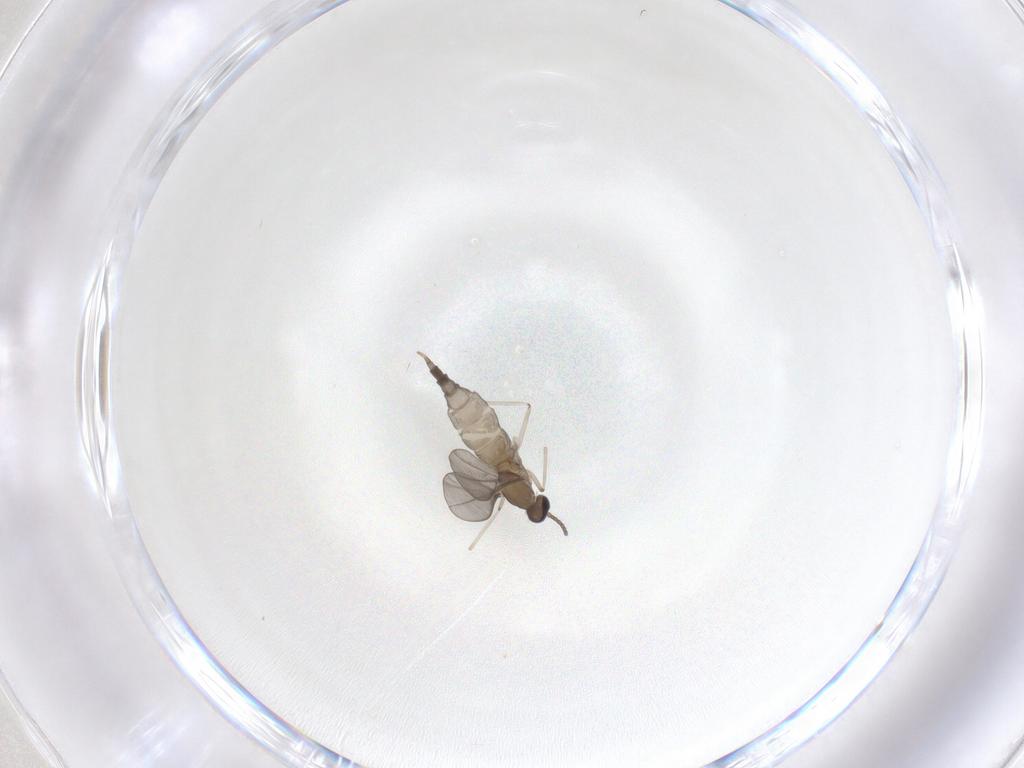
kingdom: Animalia
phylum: Arthropoda
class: Insecta
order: Diptera
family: Cecidomyiidae
